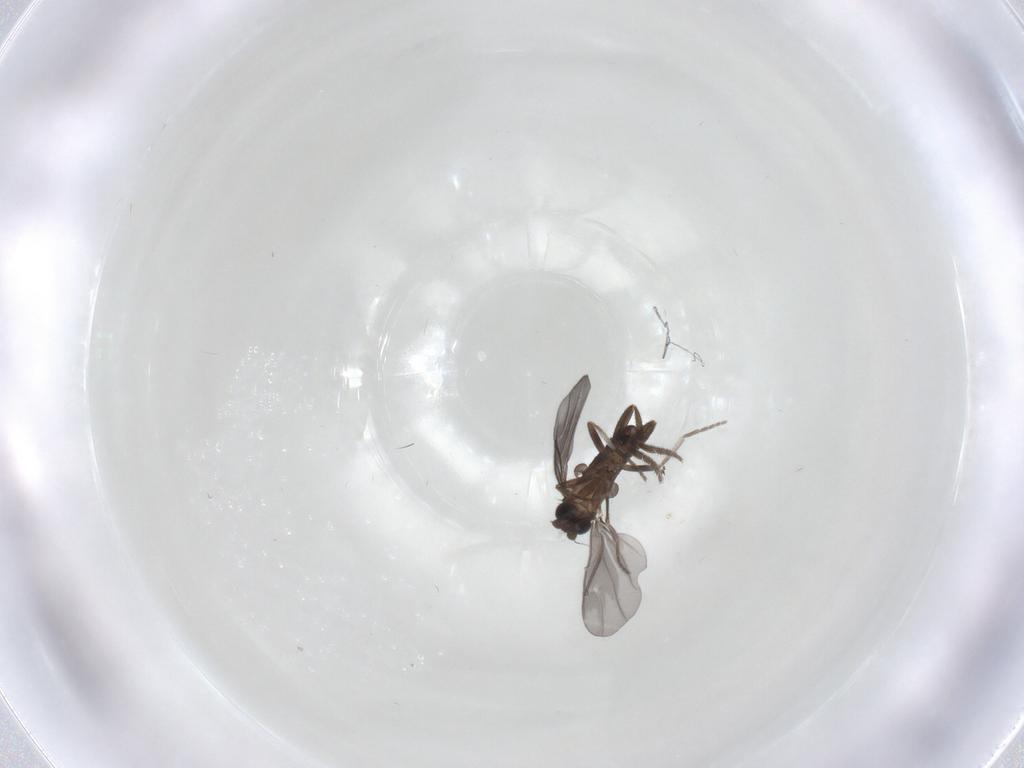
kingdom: Animalia
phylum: Arthropoda
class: Insecta
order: Diptera
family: Phoridae
